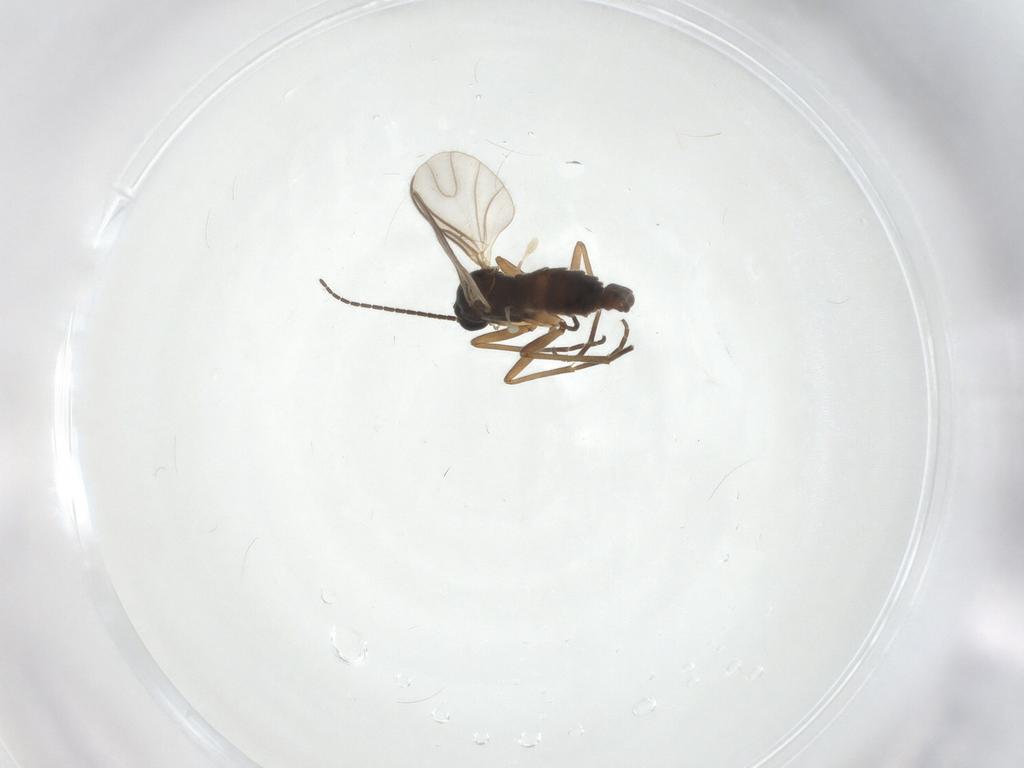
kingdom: Animalia
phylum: Arthropoda
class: Insecta
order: Diptera
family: Sciaridae
